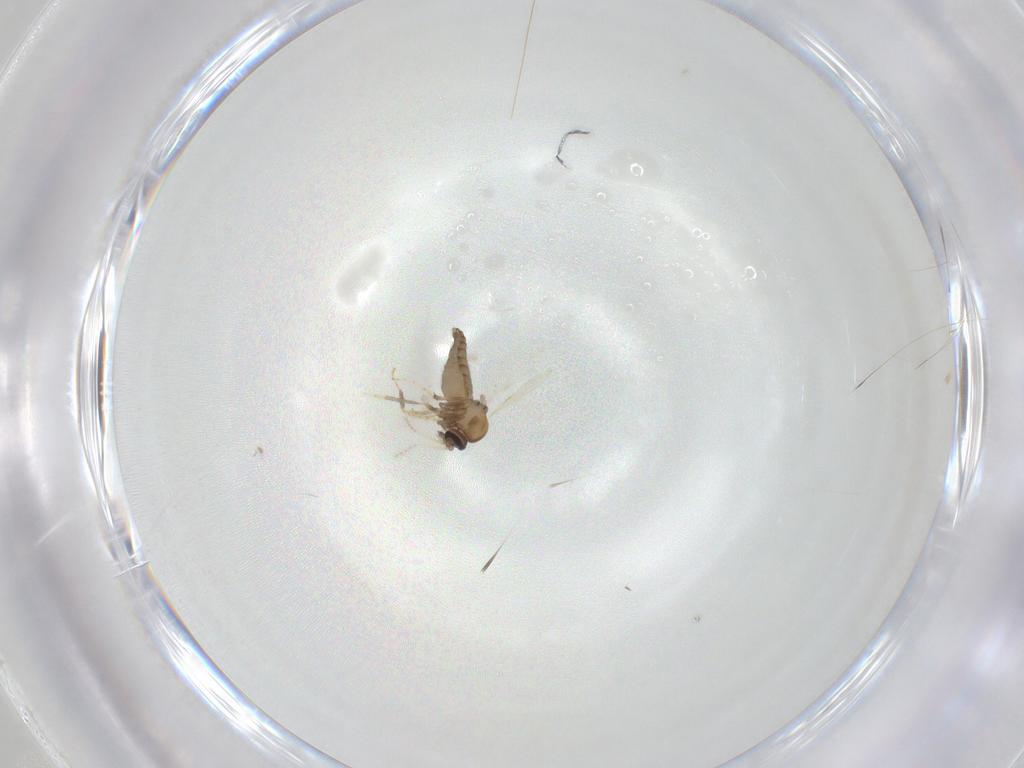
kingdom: Animalia
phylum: Arthropoda
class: Insecta
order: Diptera
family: Ceratopogonidae
